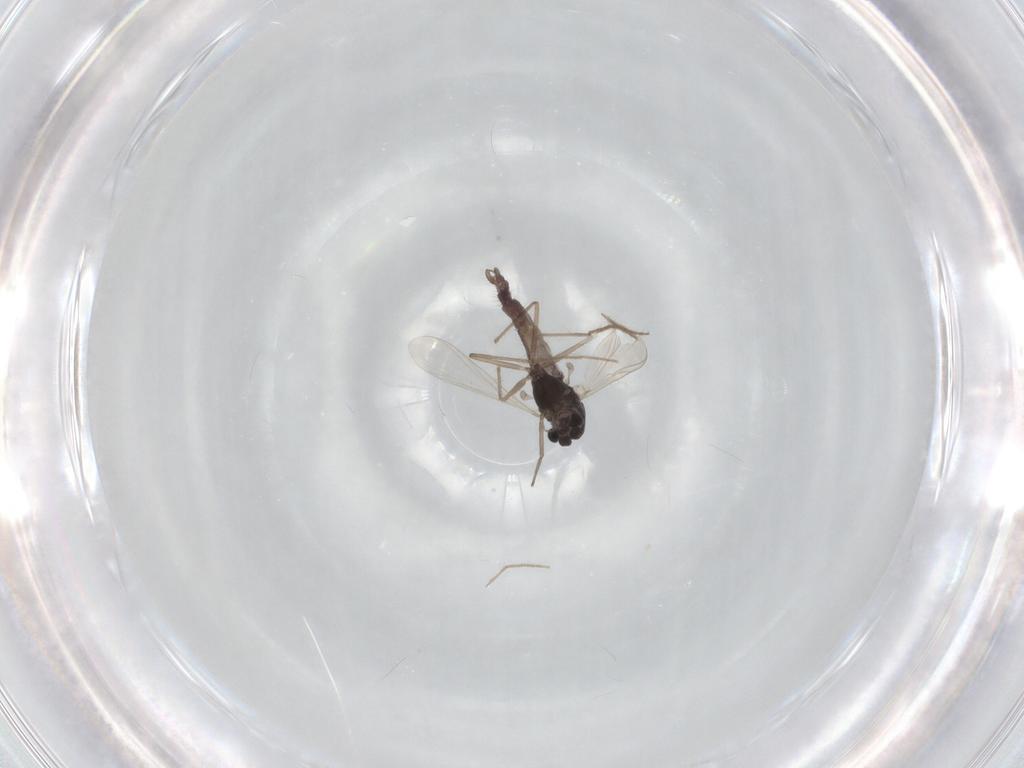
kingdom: Animalia
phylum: Arthropoda
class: Insecta
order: Diptera
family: Chironomidae
